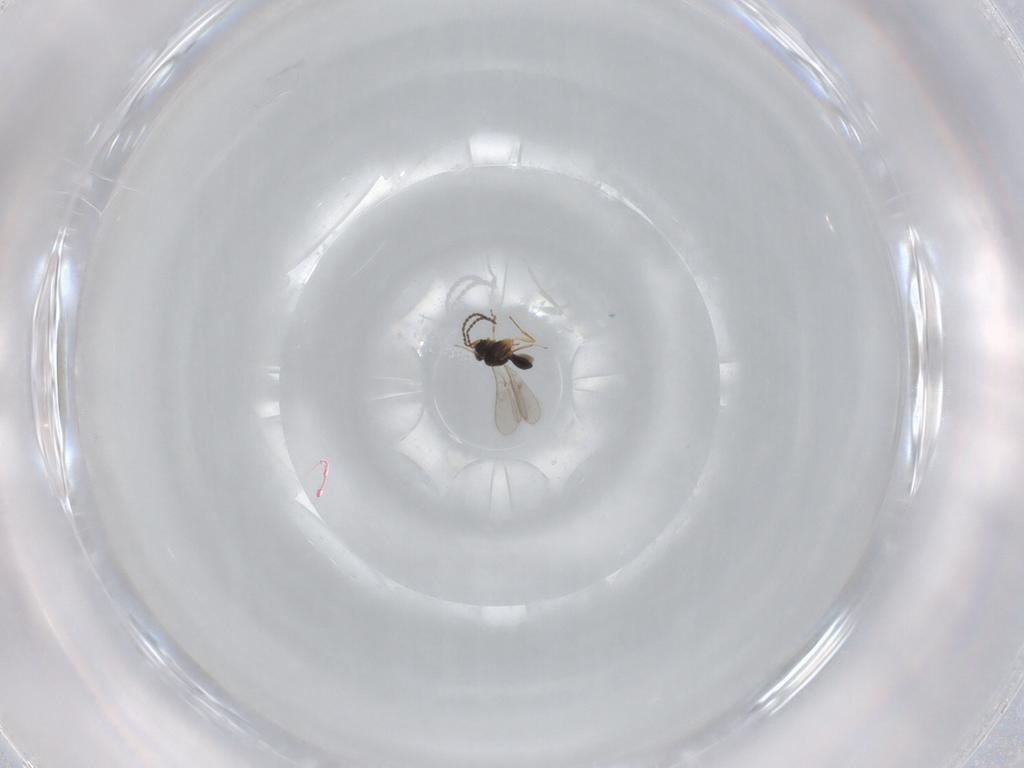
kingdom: Animalia
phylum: Arthropoda
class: Insecta
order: Hymenoptera
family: Scelionidae
